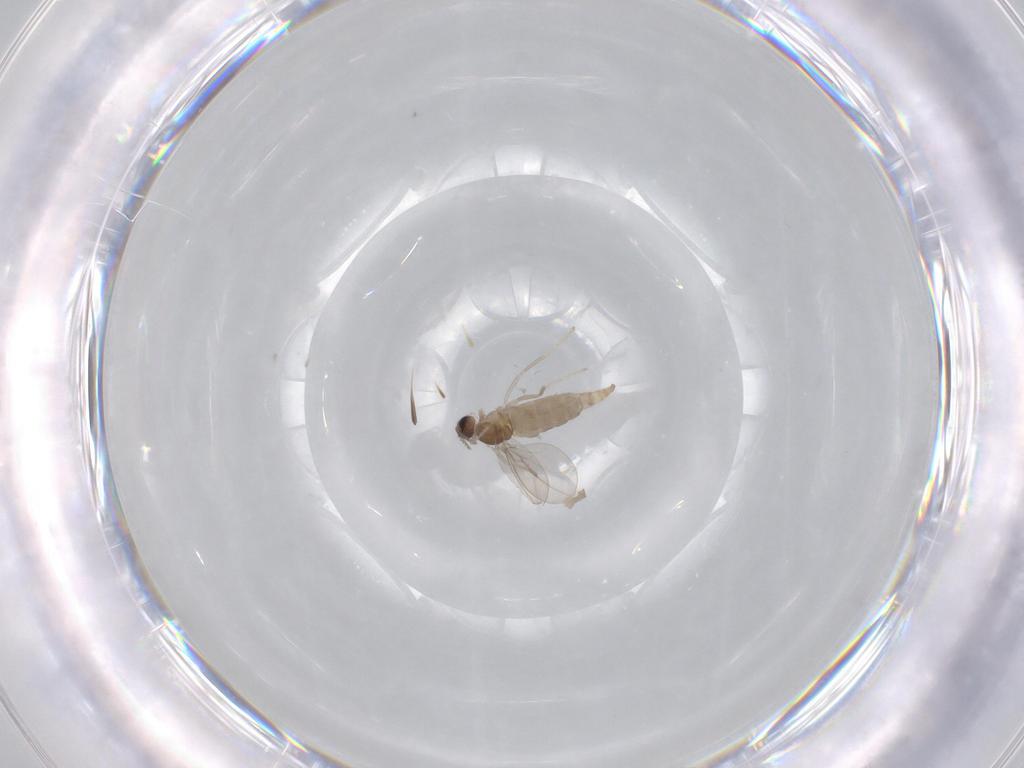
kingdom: Animalia
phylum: Arthropoda
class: Insecta
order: Diptera
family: Cecidomyiidae
